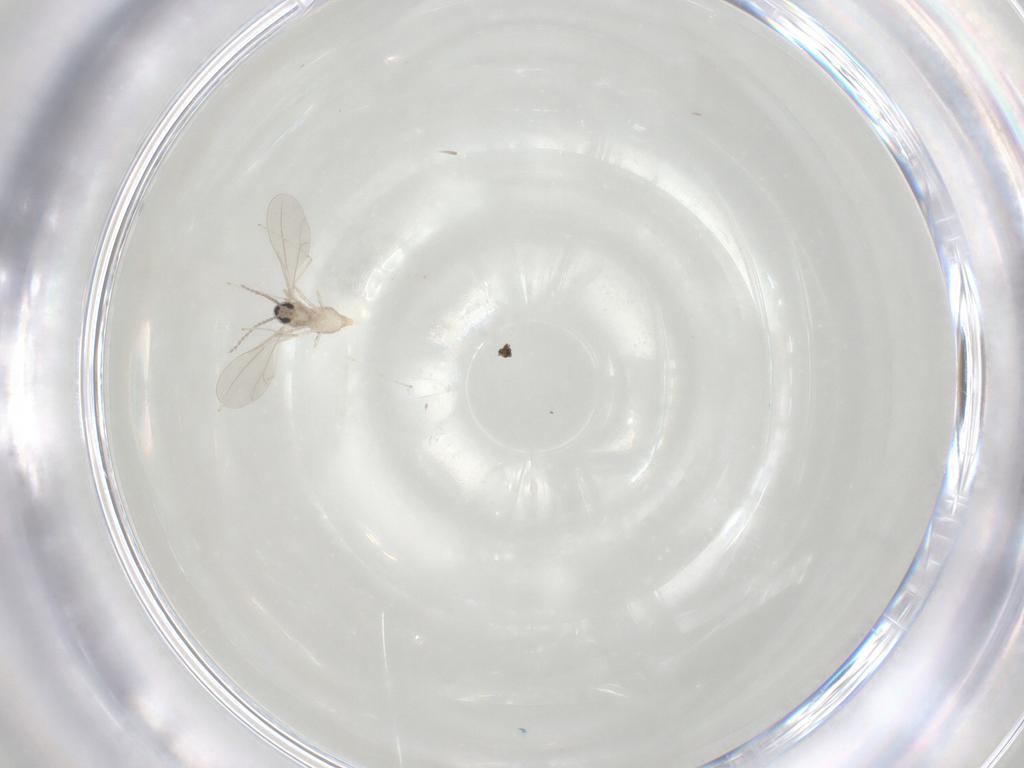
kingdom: Animalia
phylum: Arthropoda
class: Insecta
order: Diptera
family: Cecidomyiidae
